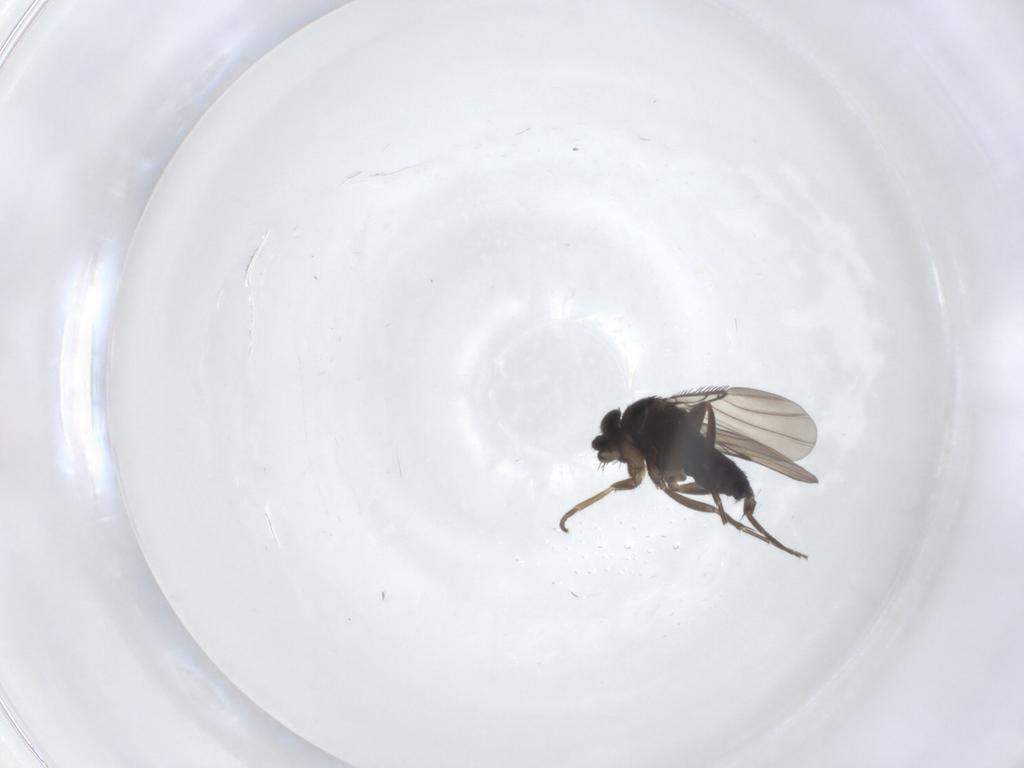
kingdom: Animalia
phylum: Arthropoda
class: Insecta
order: Diptera
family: Phoridae
